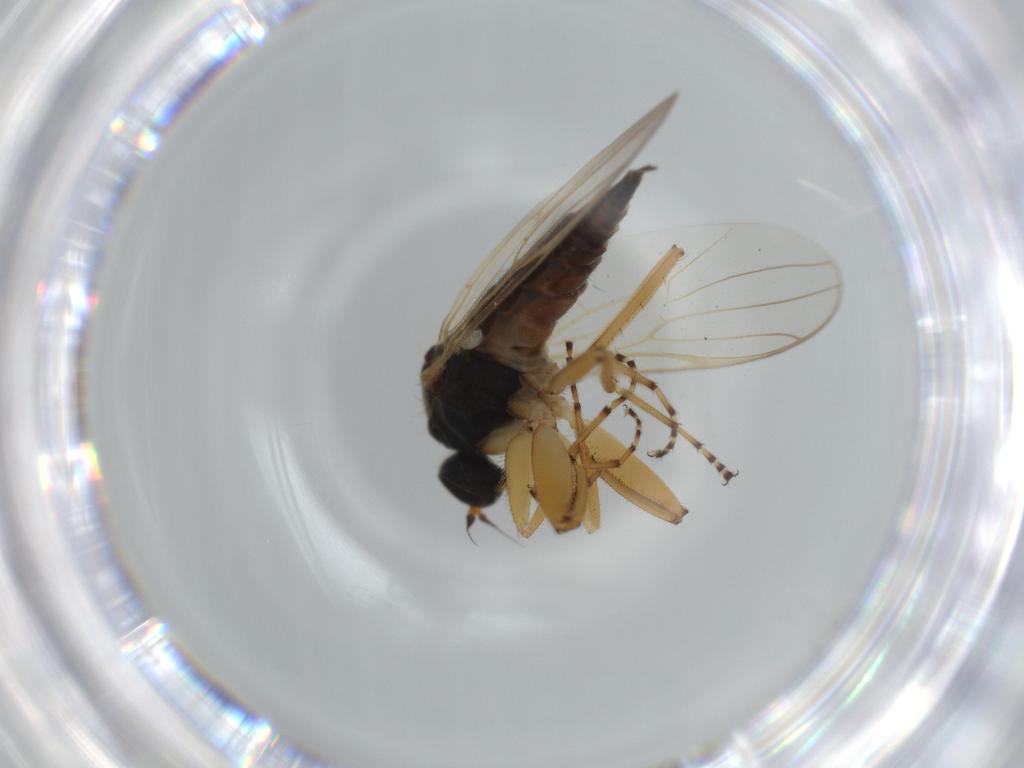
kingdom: Animalia
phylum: Arthropoda
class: Insecta
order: Diptera
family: Hybotidae
